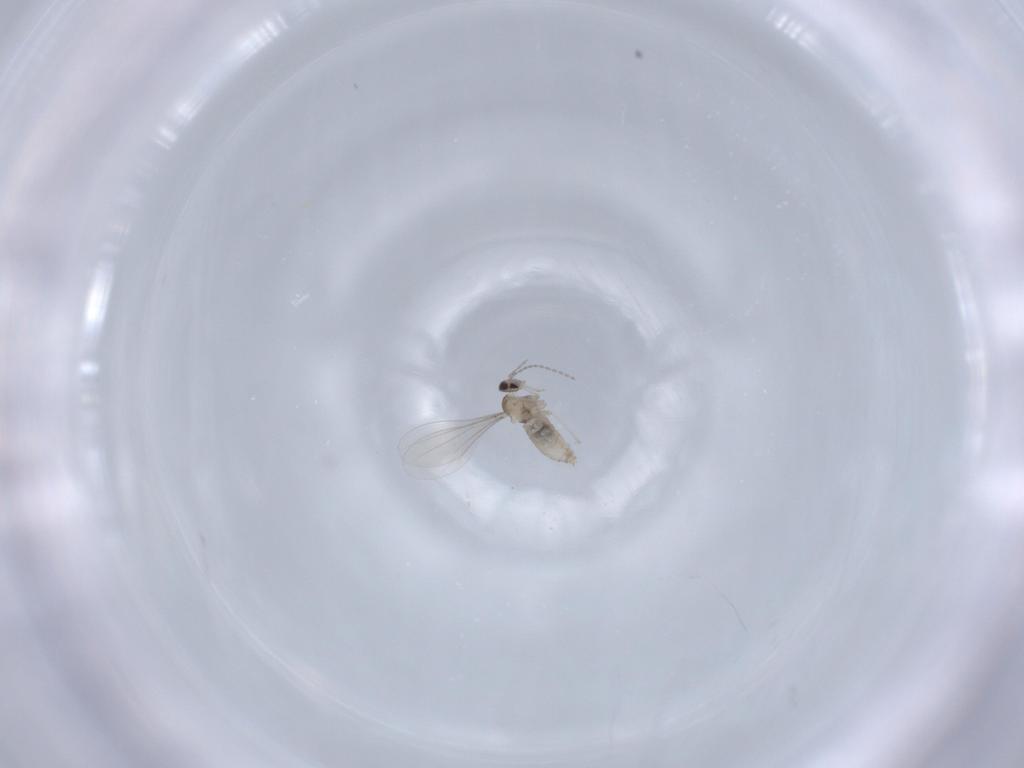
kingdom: Animalia
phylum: Arthropoda
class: Insecta
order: Diptera
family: Cecidomyiidae
